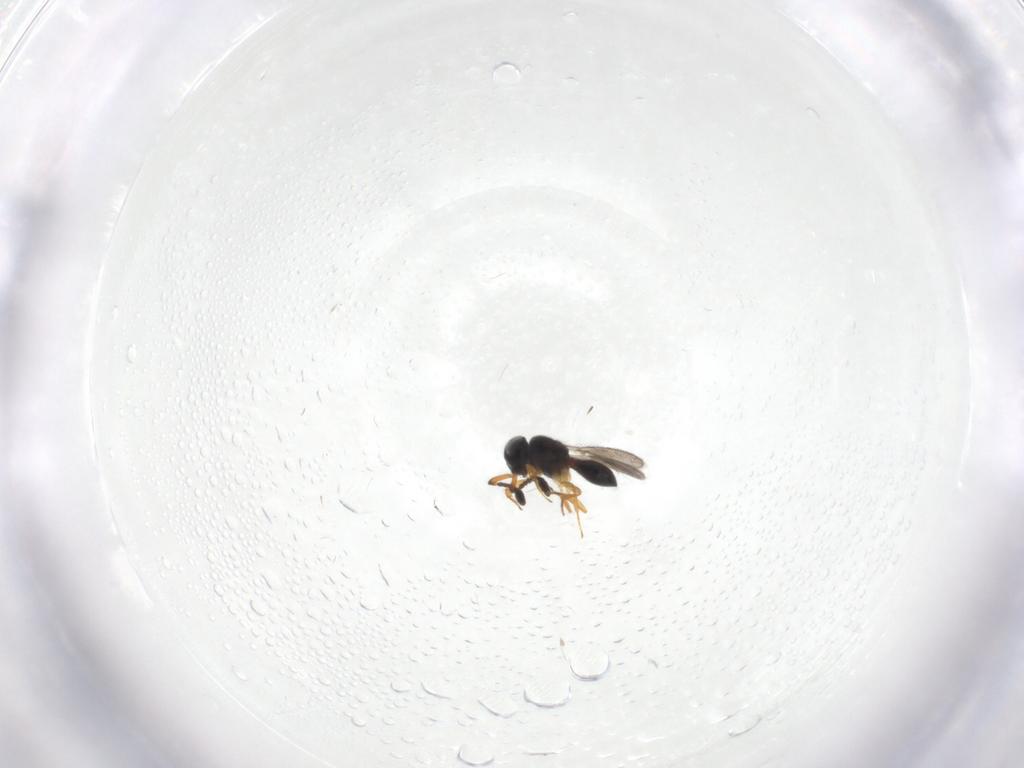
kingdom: Animalia
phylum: Arthropoda
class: Insecta
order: Hymenoptera
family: Scelionidae
